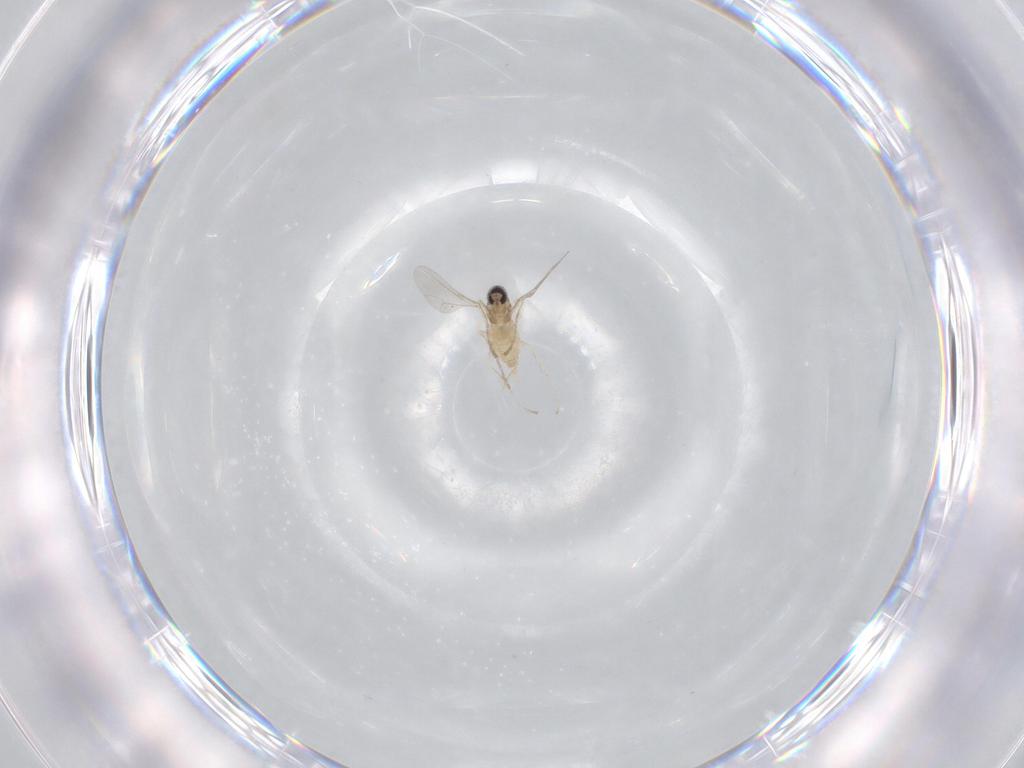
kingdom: Animalia
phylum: Arthropoda
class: Insecta
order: Diptera
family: Cecidomyiidae
